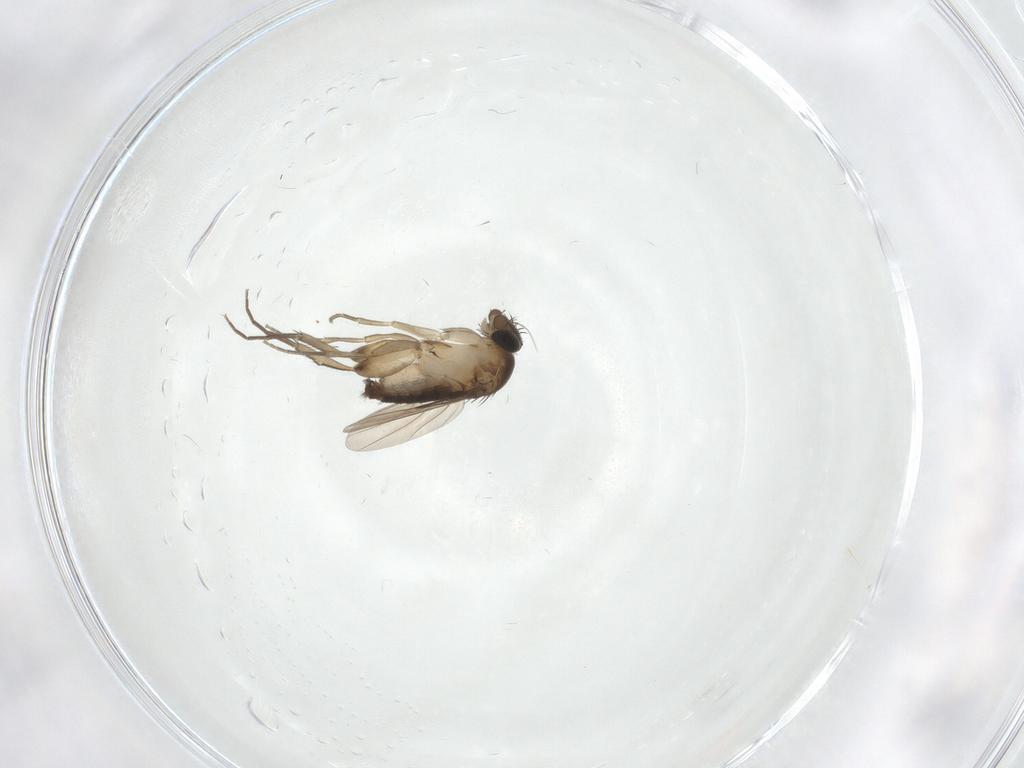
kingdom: Animalia
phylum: Arthropoda
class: Insecta
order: Diptera
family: Phoridae
